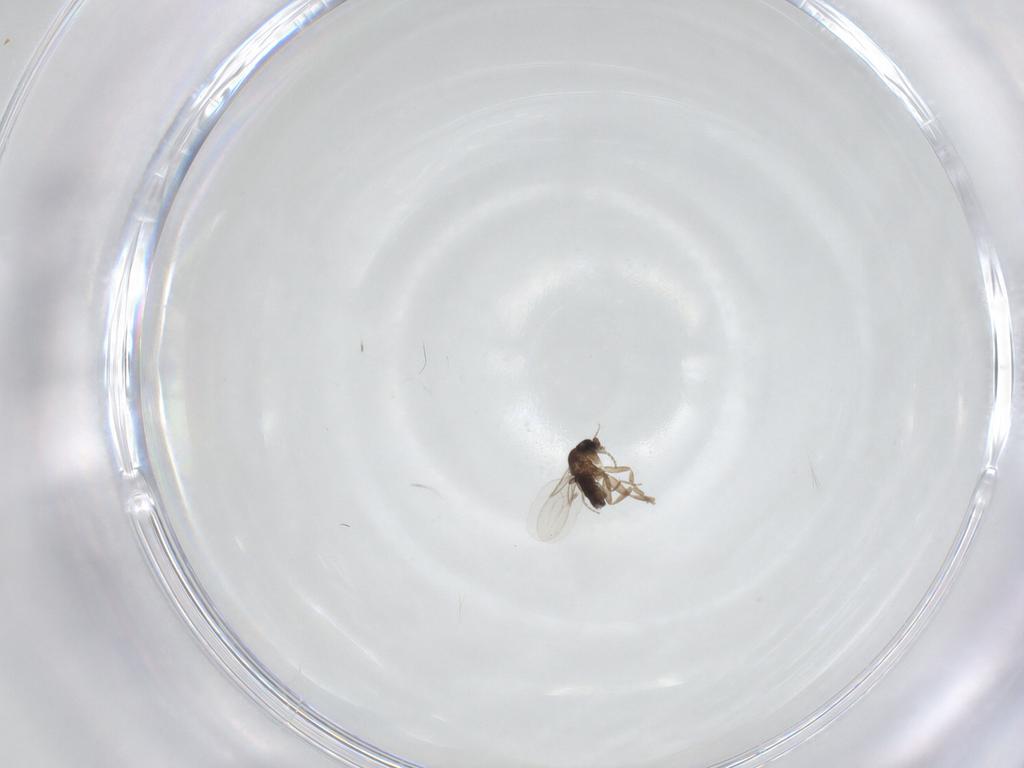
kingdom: Animalia
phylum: Arthropoda
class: Insecta
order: Diptera
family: Phoridae
